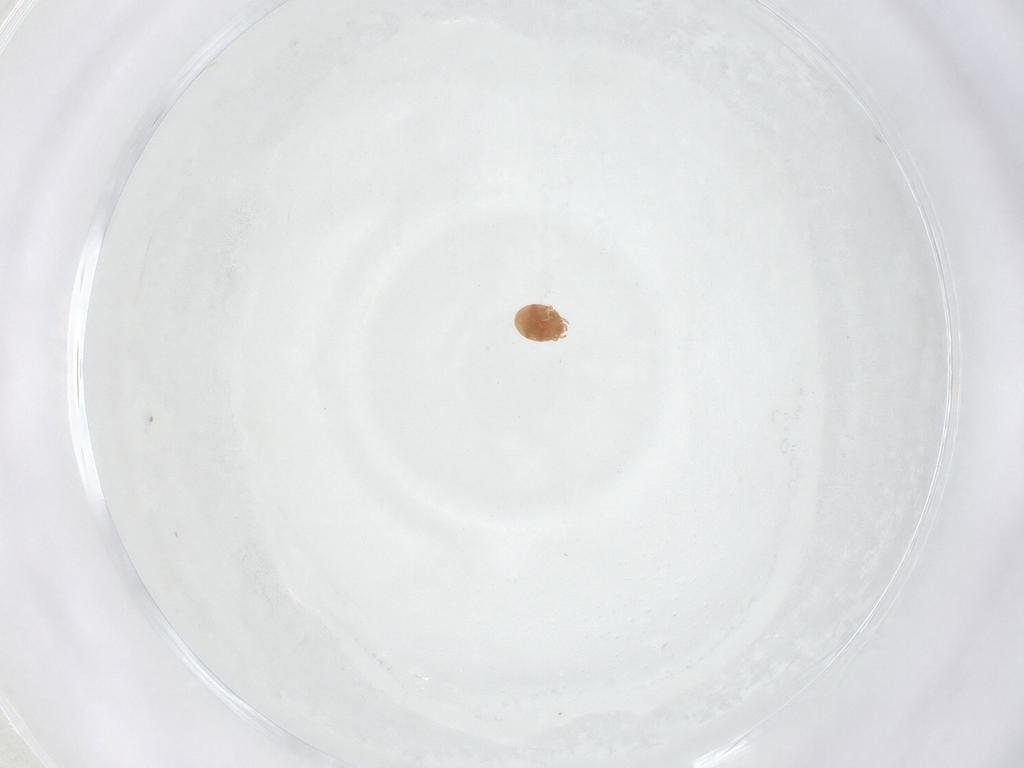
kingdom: Animalia
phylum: Arthropoda
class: Arachnida
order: Mesostigmata
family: Trematuridae
